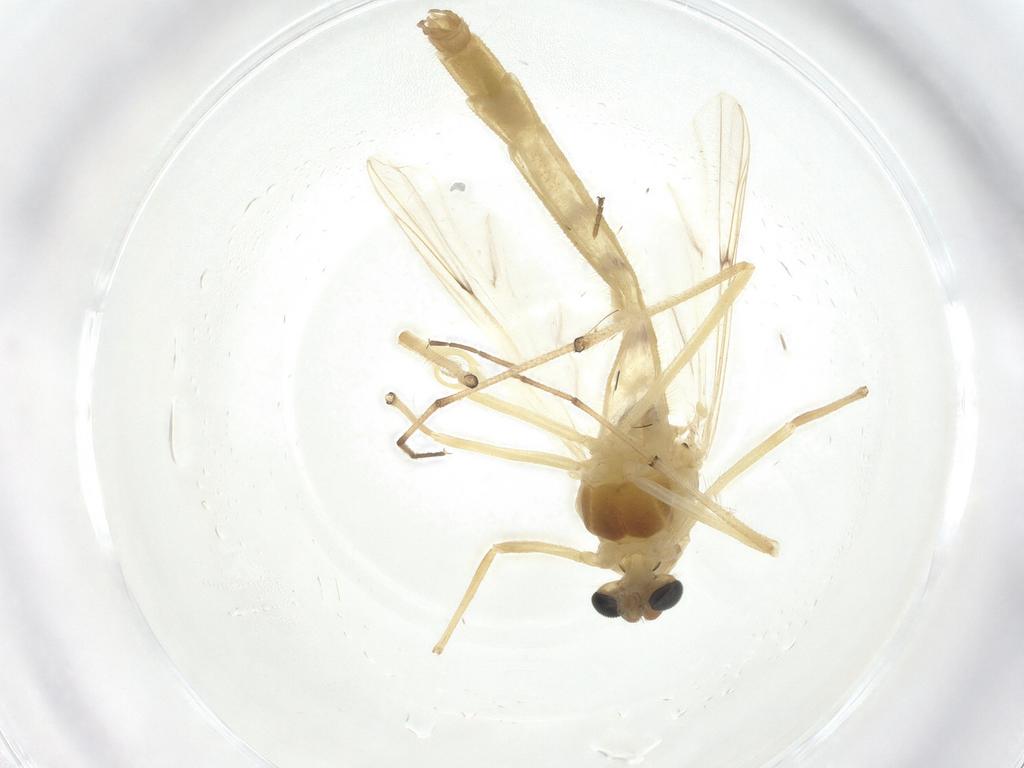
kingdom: Animalia
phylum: Arthropoda
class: Insecta
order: Diptera
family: Chironomidae
